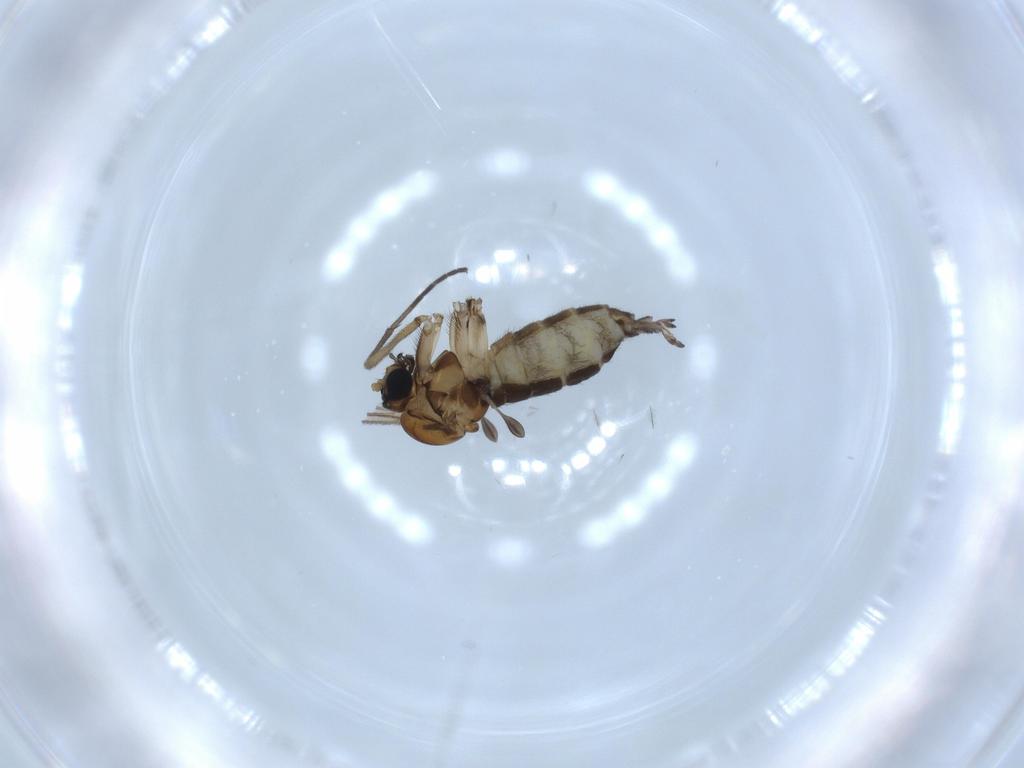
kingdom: Animalia
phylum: Arthropoda
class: Insecta
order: Diptera
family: Sciaridae
